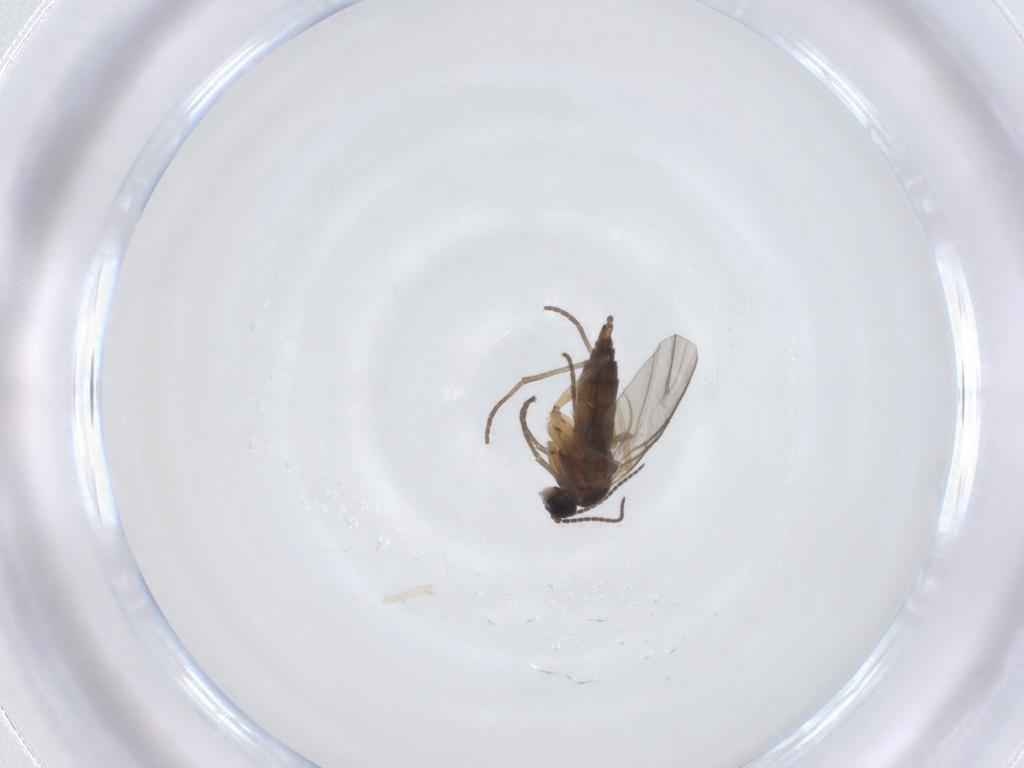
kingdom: Animalia
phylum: Arthropoda
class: Insecta
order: Diptera
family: Sciaridae
